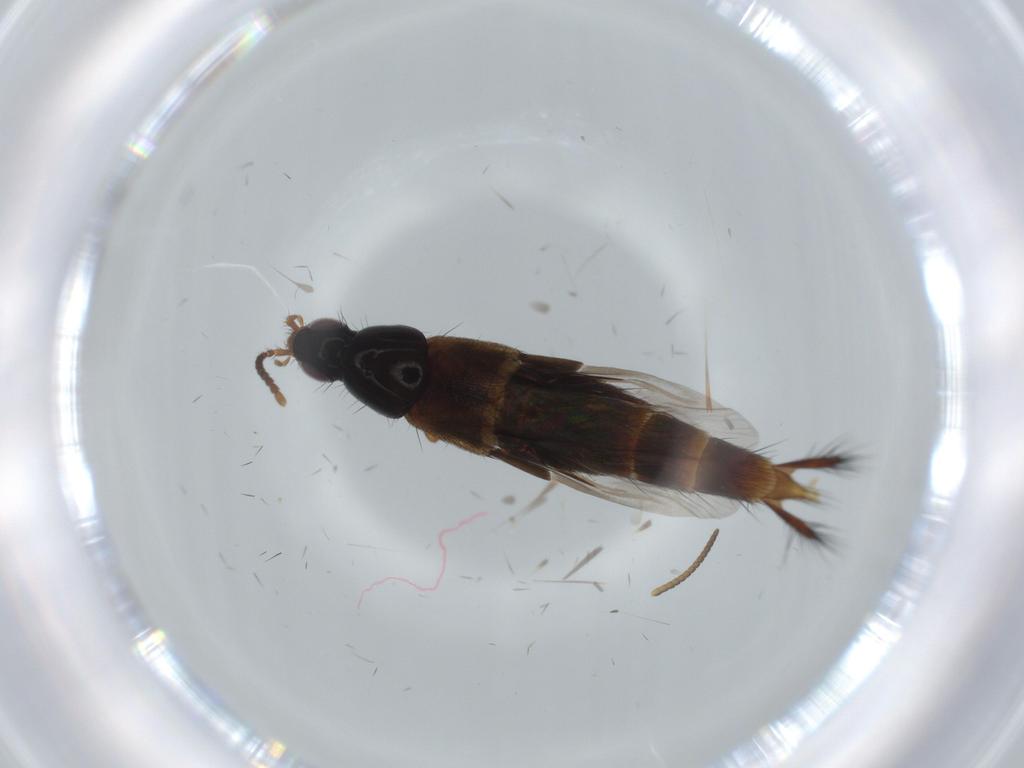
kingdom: Animalia
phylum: Arthropoda
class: Insecta
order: Coleoptera
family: Staphylinidae
